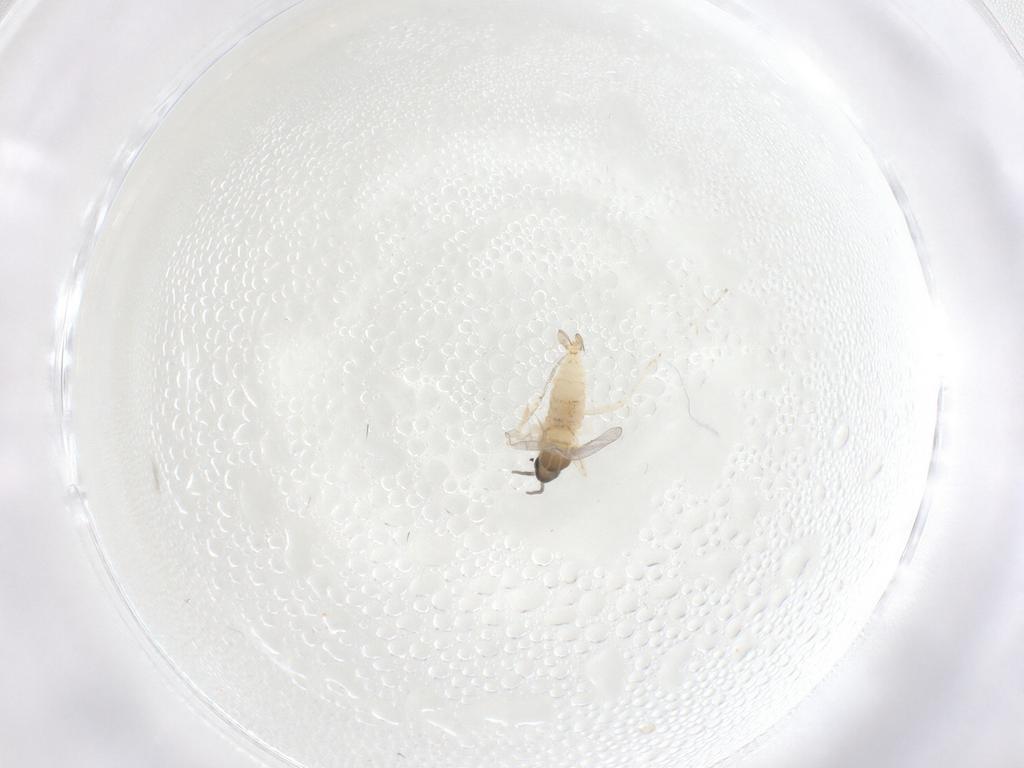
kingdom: Animalia
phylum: Arthropoda
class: Insecta
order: Diptera
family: Cecidomyiidae
